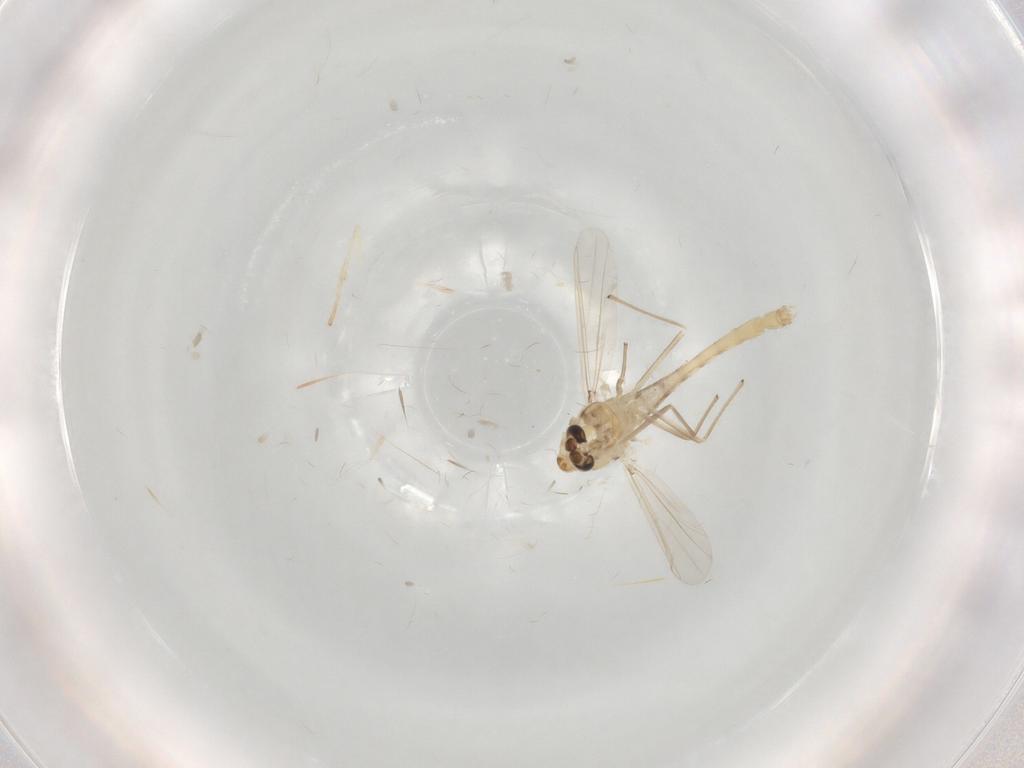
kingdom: Animalia
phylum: Arthropoda
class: Insecta
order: Diptera
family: Psychodidae
